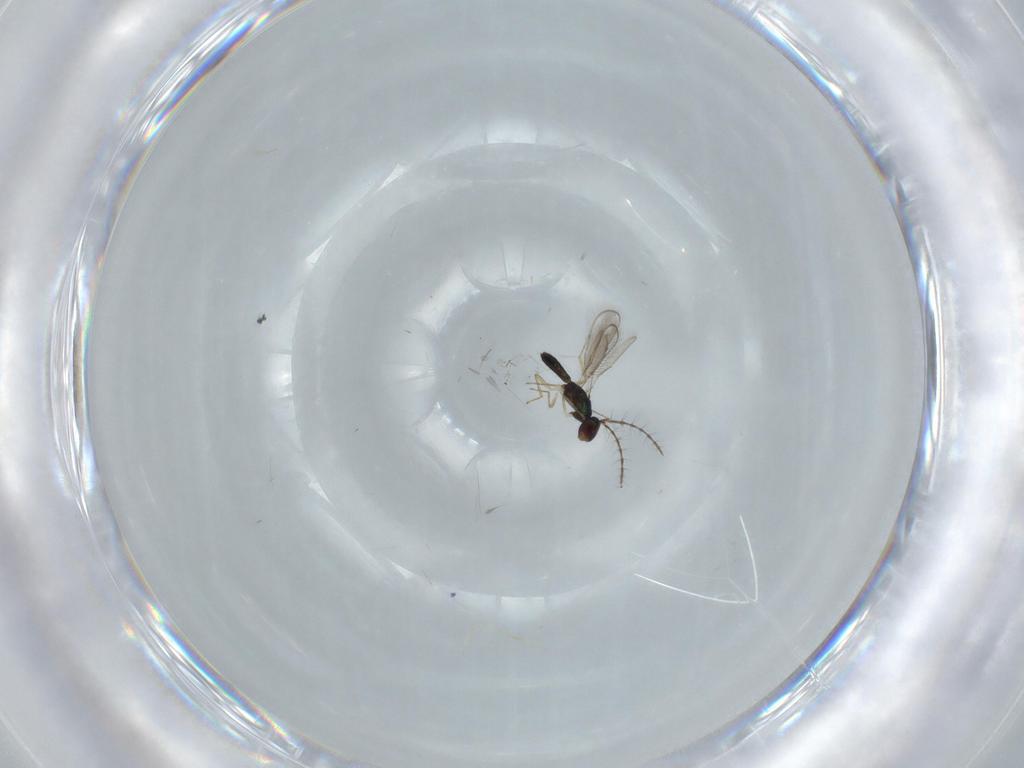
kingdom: Animalia
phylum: Arthropoda
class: Insecta
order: Hymenoptera
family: Pteromalidae
